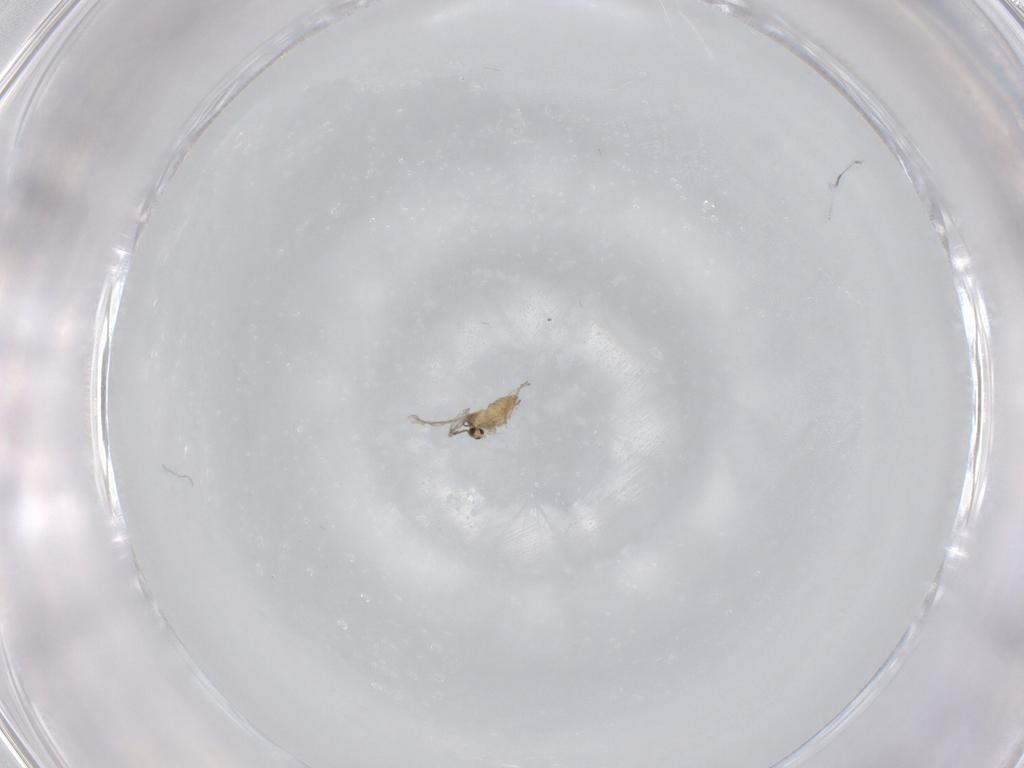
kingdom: Animalia
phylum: Arthropoda
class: Insecta
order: Diptera
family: Cecidomyiidae
